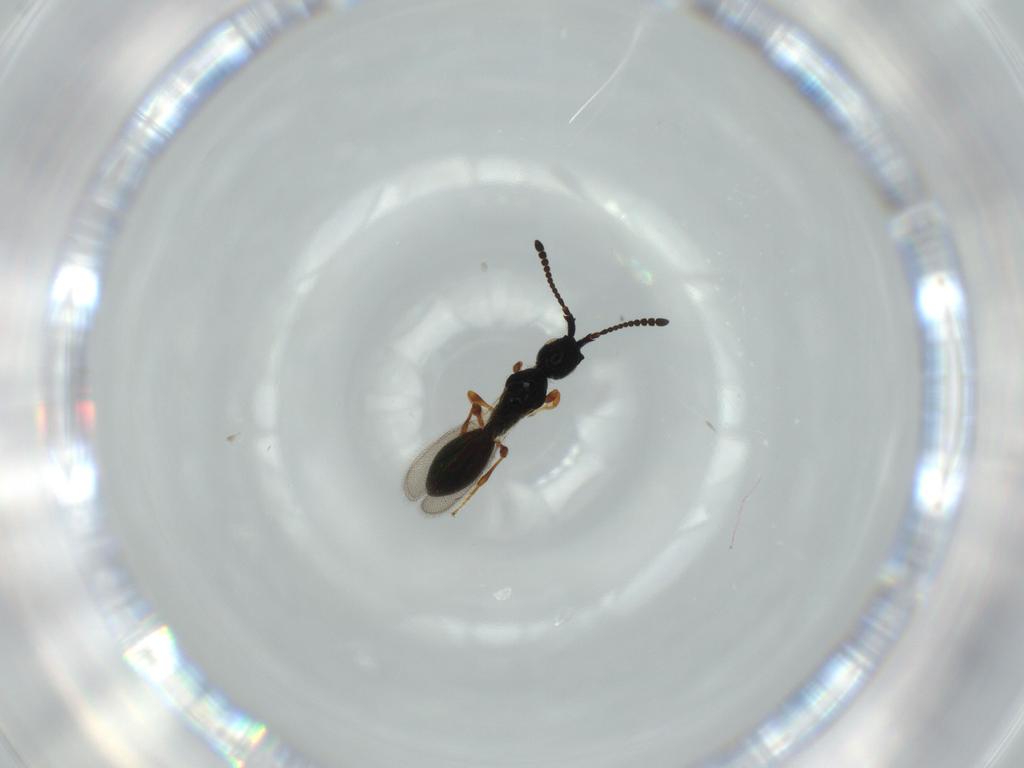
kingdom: Animalia
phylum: Arthropoda
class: Insecta
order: Hymenoptera
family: Diapriidae
